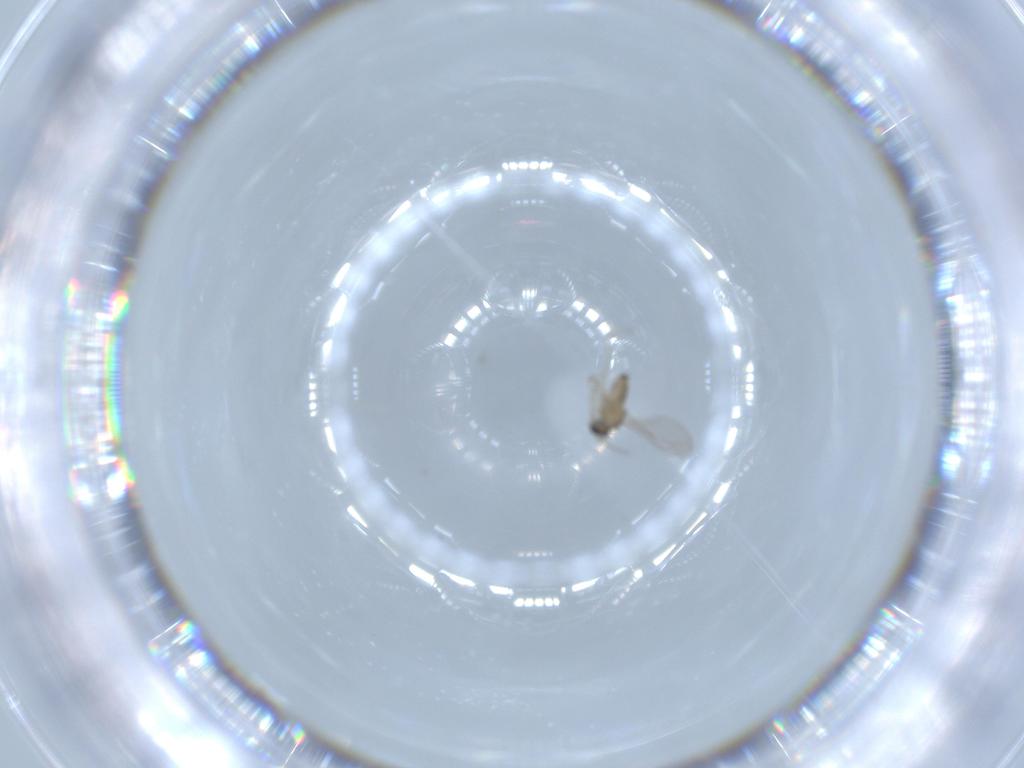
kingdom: Animalia
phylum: Arthropoda
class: Insecta
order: Diptera
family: Cecidomyiidae
